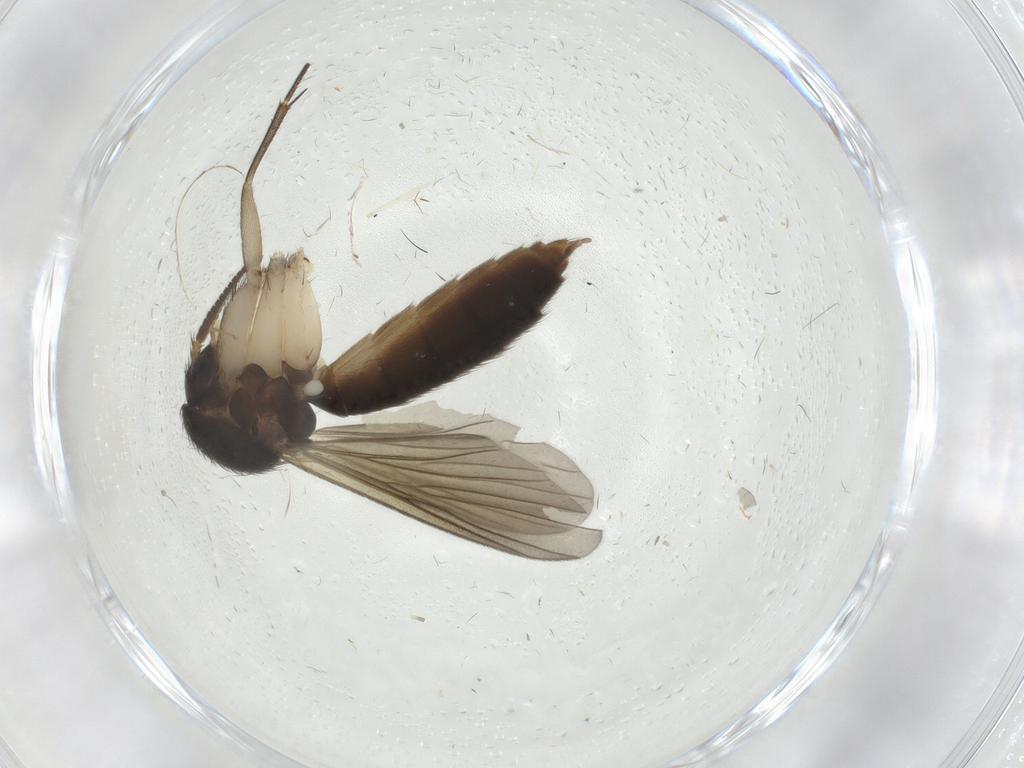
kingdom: Animalia
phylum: Arthropoda
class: Insecta
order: Diptera
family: Mycetophilidae
